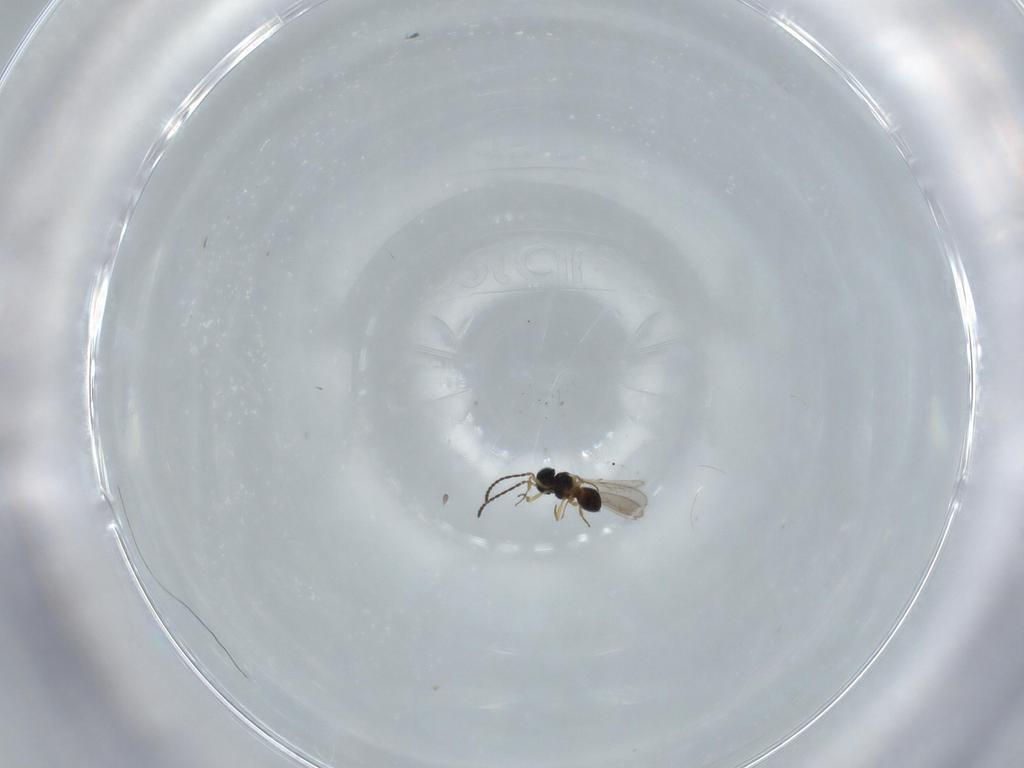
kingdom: Animalia
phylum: Arthropoda
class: Insecta
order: Hymenoptera
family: Scelionidae
